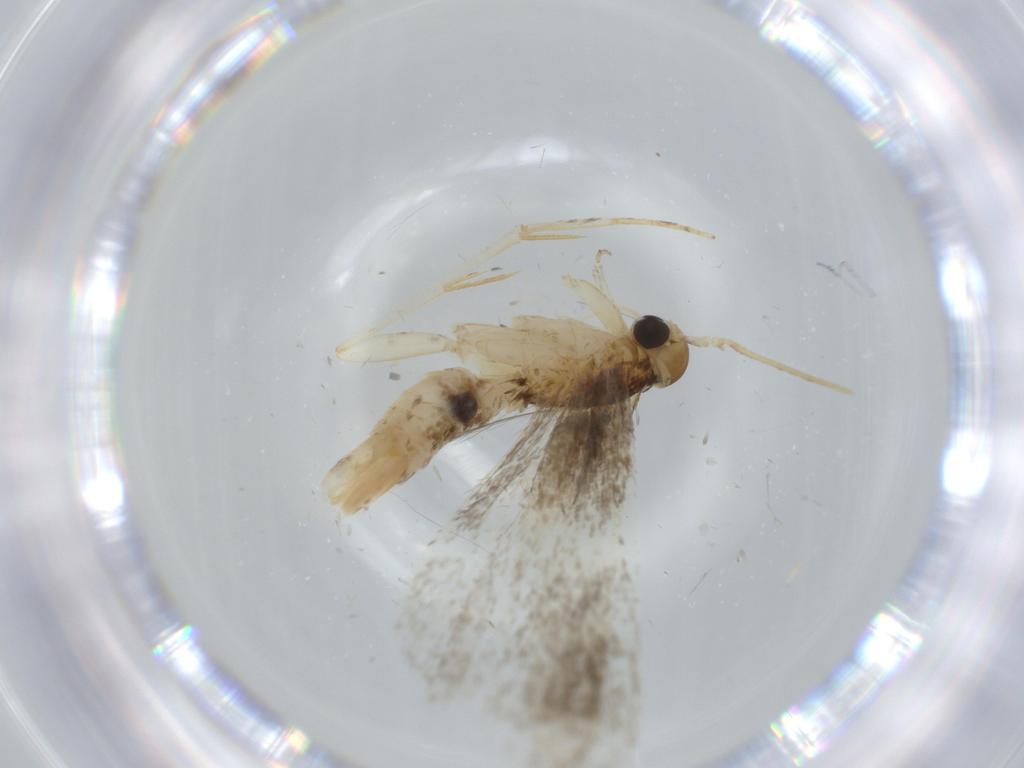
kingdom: Animalia
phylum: Arthropoda
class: Insecta
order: Lepidoptera
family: Coleophoridae
